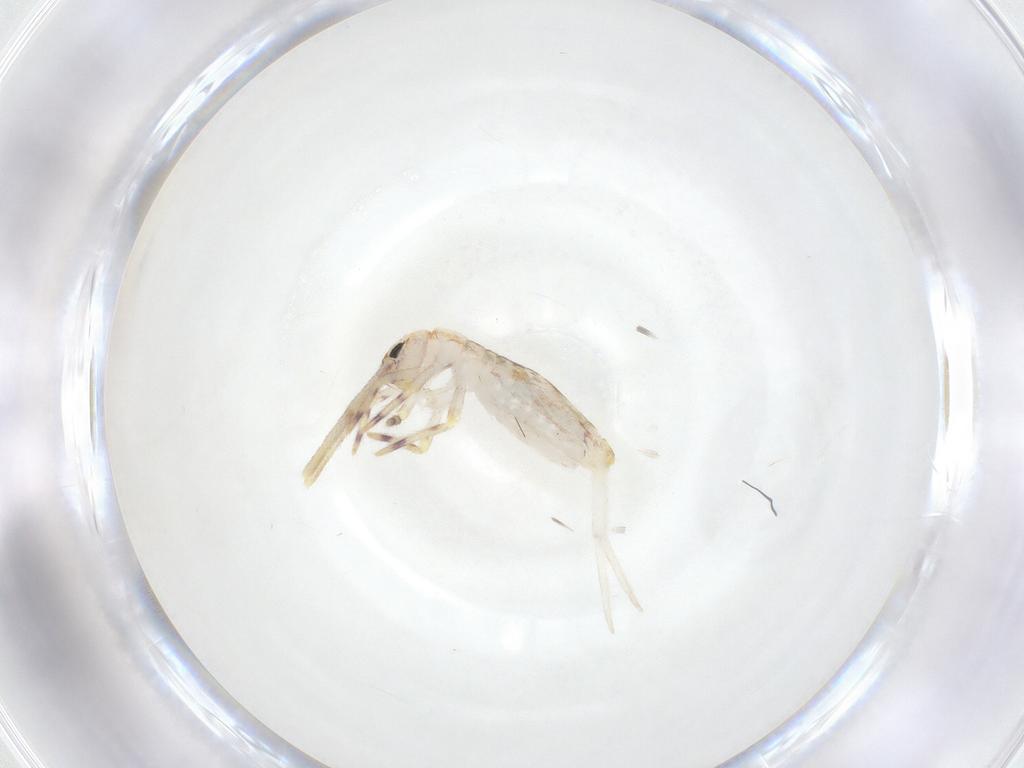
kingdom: Animalia
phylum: Arthropoda
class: Collembola
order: Entomobryomorpha
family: Entomobryidae
